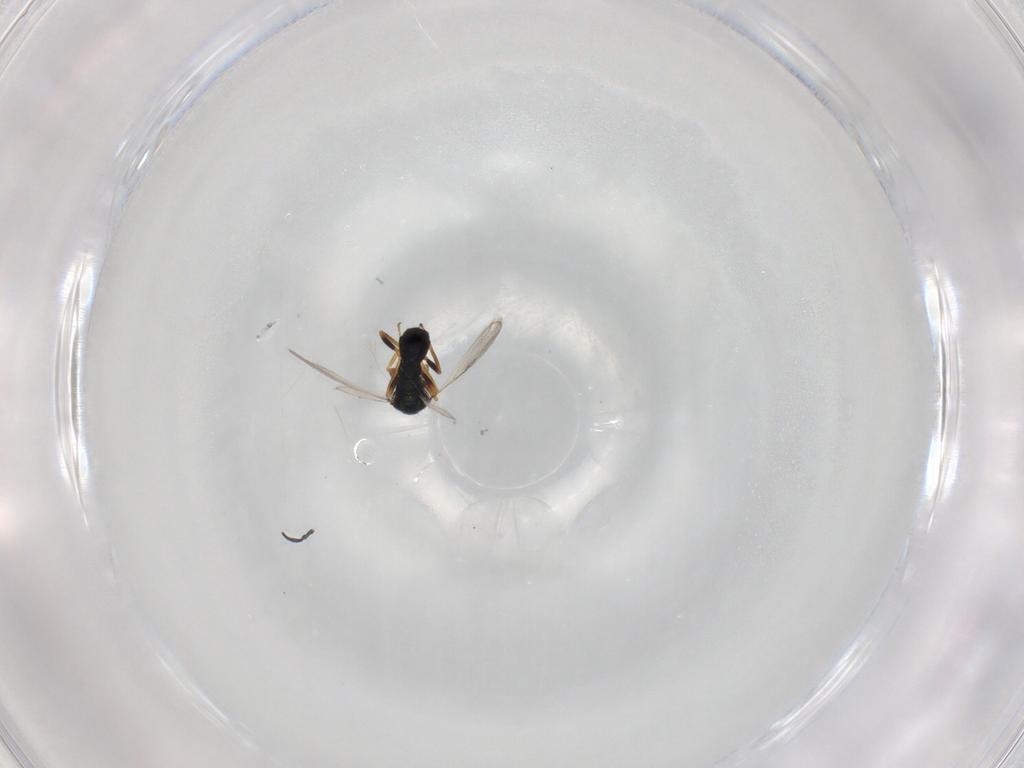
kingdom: Animalia
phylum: Arthropoda
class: Insecta
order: Hymenoptera
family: Chalcidoidea_incertae_sedis
